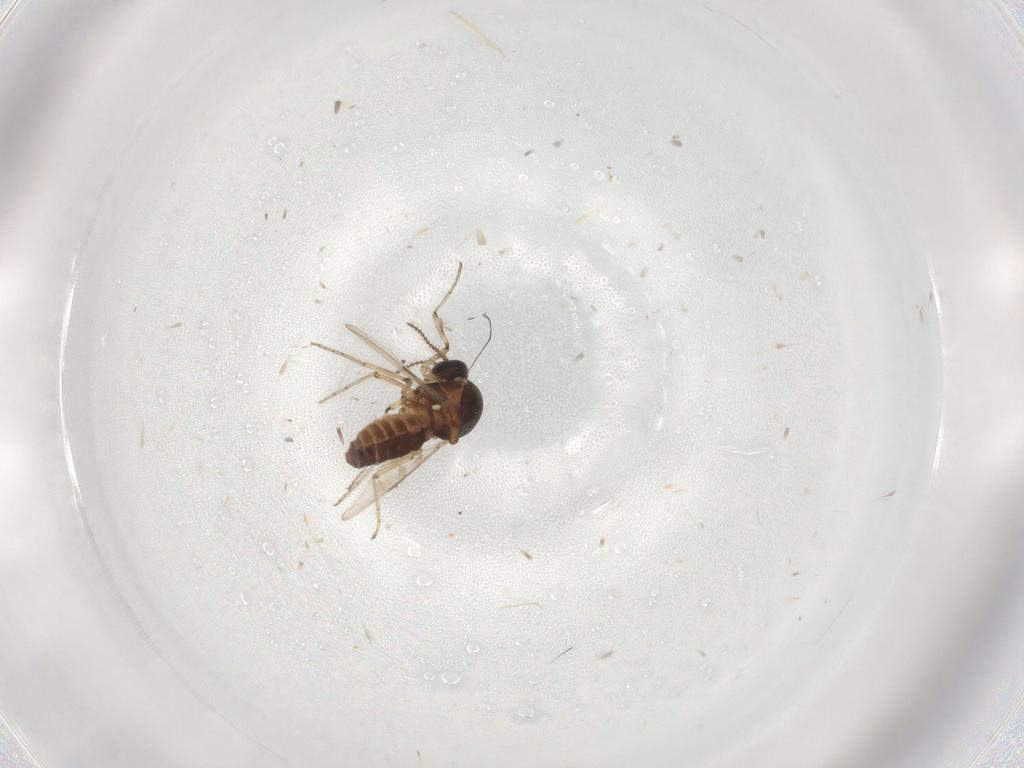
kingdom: Animalia
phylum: Arthropoda
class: Insecta
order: Diptera
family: Ceratopogonidae
